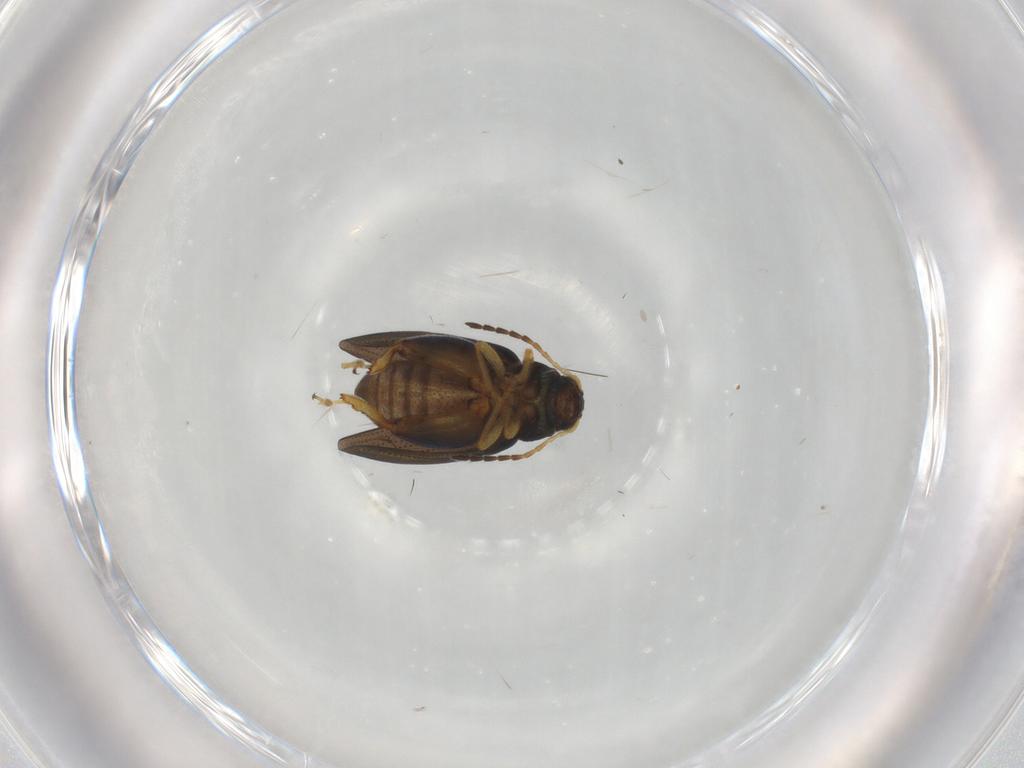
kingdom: Animalia
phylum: Arthropoda
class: Insecta
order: Coleoptera
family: Chrysomelidae
